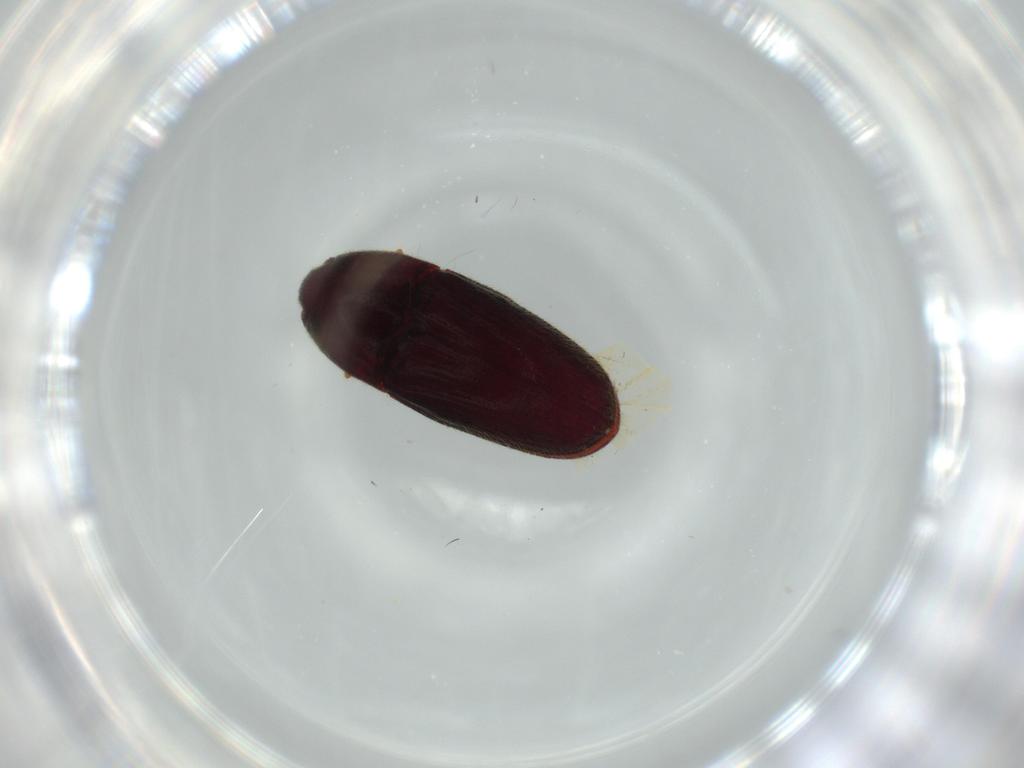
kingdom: Animalia
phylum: Arthropoda
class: Insecta
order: Coleoptera
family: Throscidae
